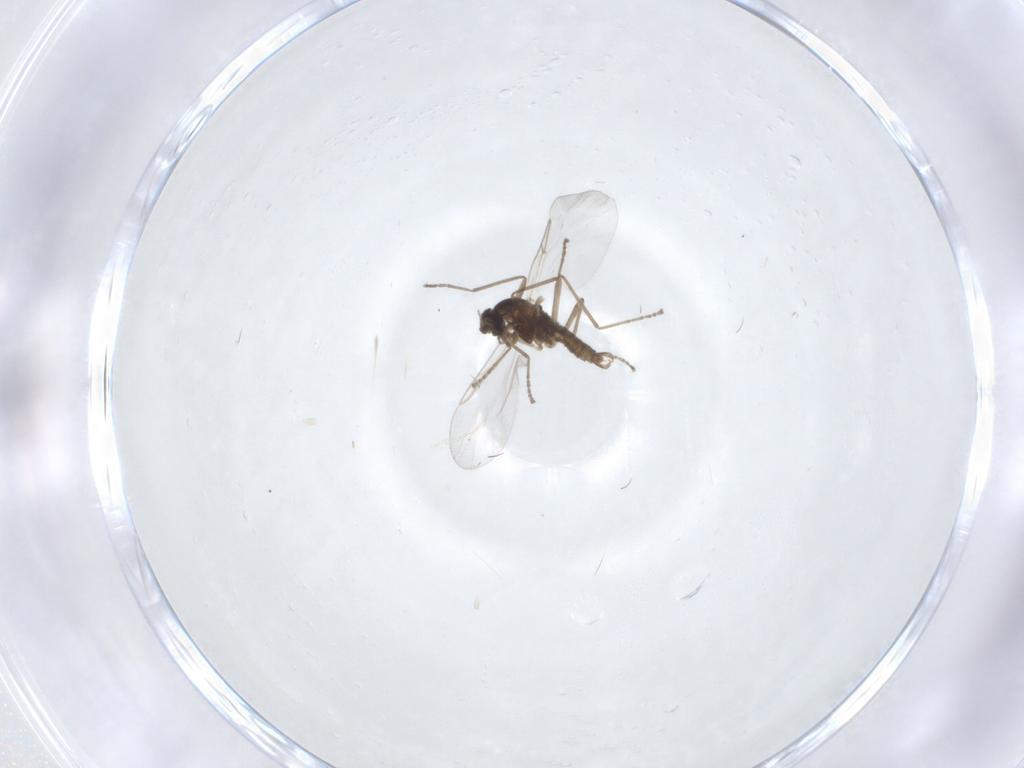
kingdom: Animalia
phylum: Arthropoda
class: Insecta
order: Diptera
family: Cecidomyiidae
